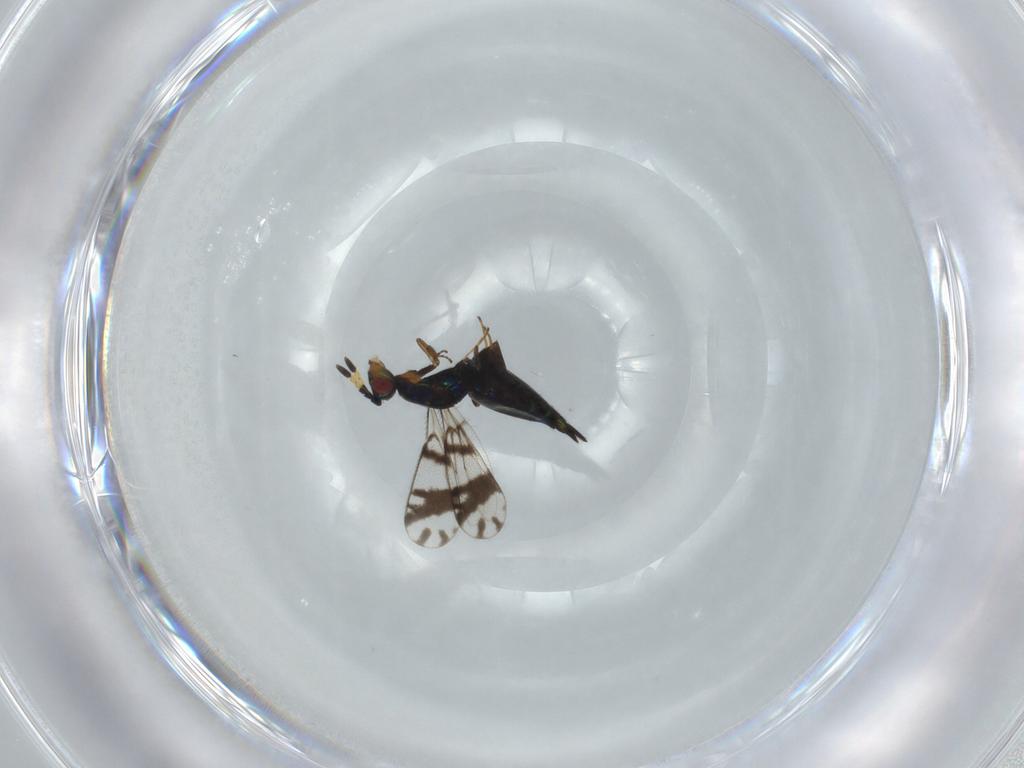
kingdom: Animalia
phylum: Arthropoda
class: Insecta
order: Hymenoptera
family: Eulophidae
